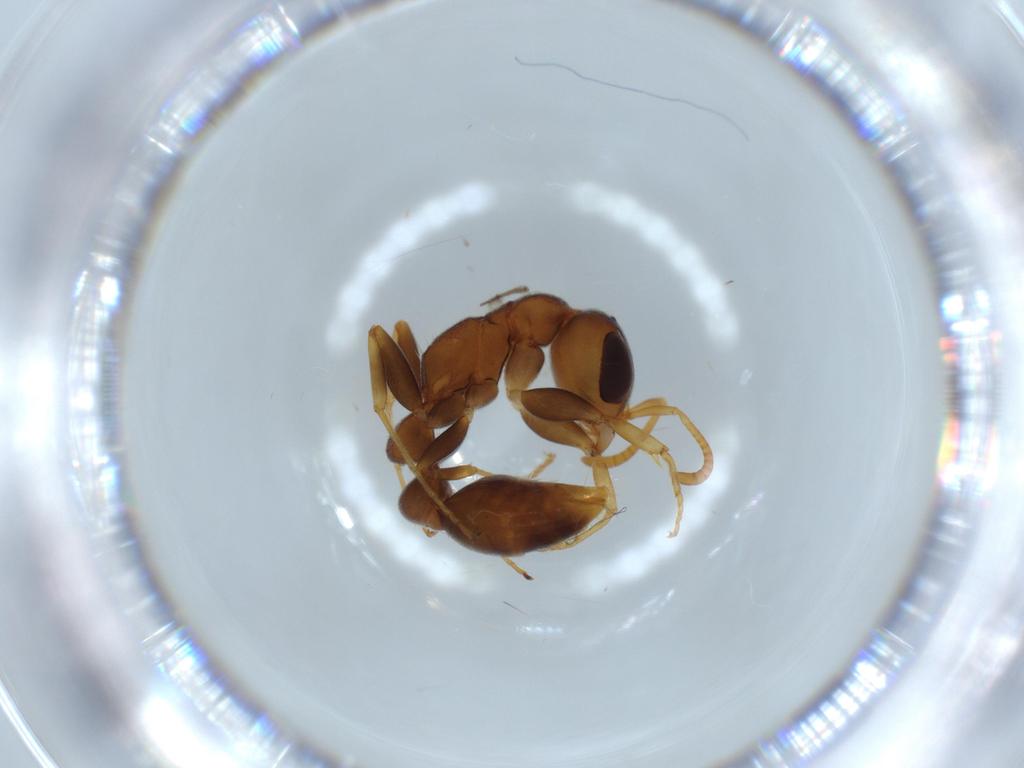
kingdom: Animalia
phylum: Arthropoda
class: Insecta
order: Hymenoptera
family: Formicidae
